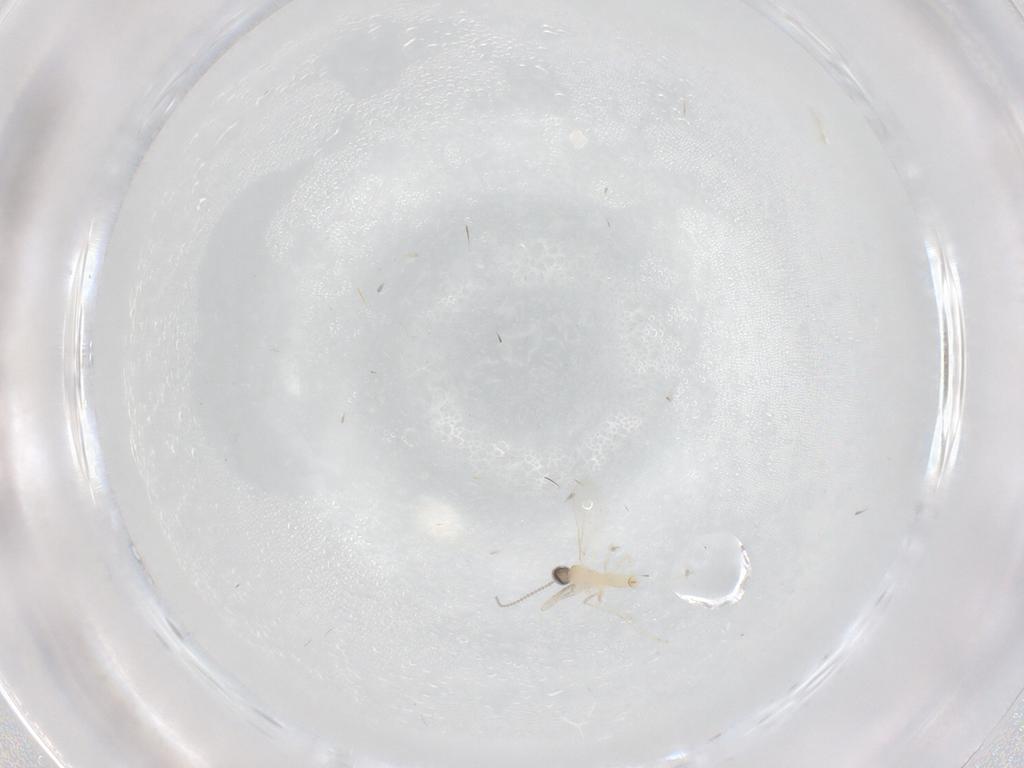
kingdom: Animalia
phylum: Arthropoda
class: Insecta
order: Diptera
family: Cecidomyiidae
